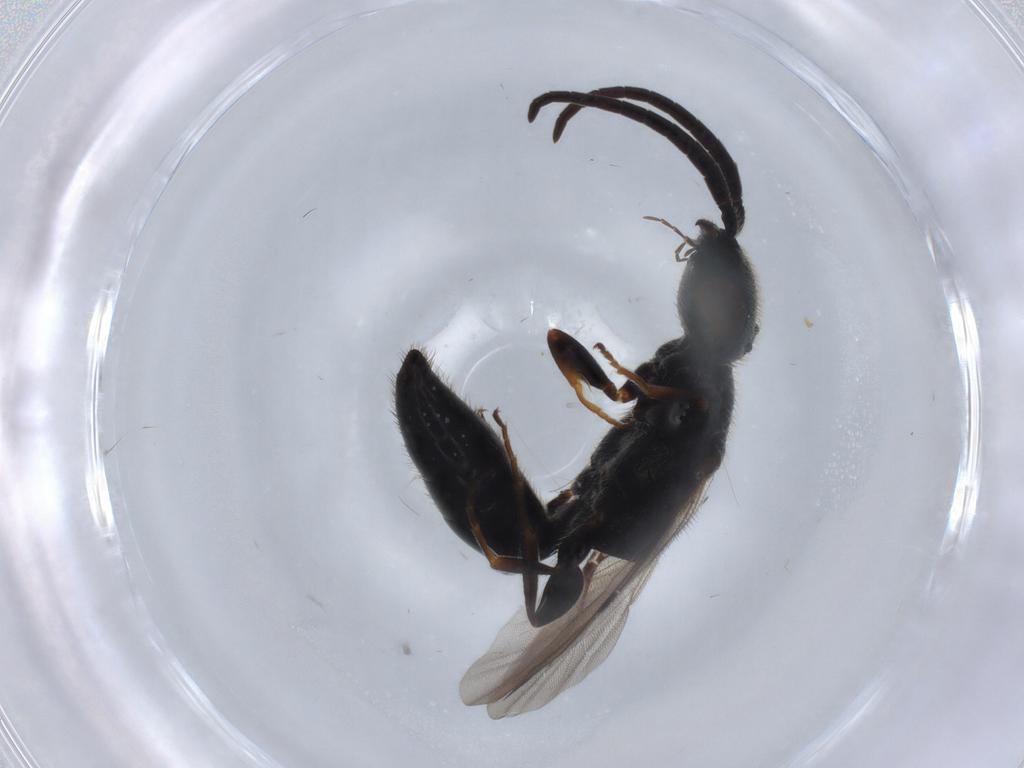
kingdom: Animalia
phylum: Arthropoda
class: Insecta
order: Hymenoptera
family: Bethylidae
